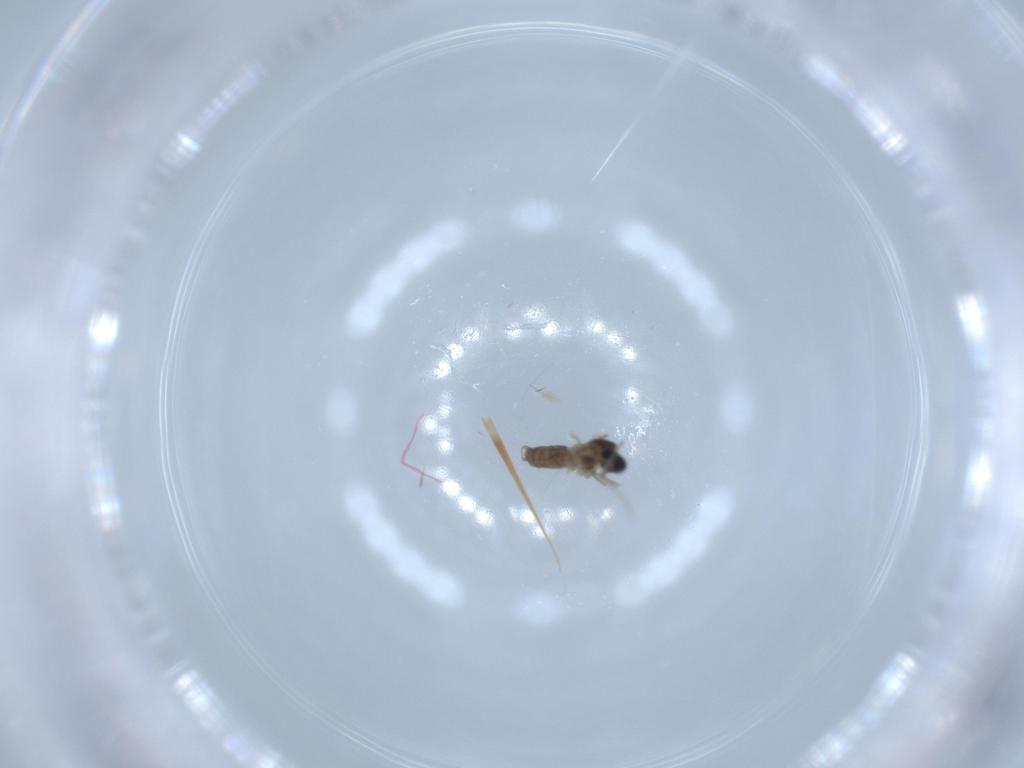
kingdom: Animalia
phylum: Arthropoda
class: Insecta
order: Diptera
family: Cecidomyiidae
